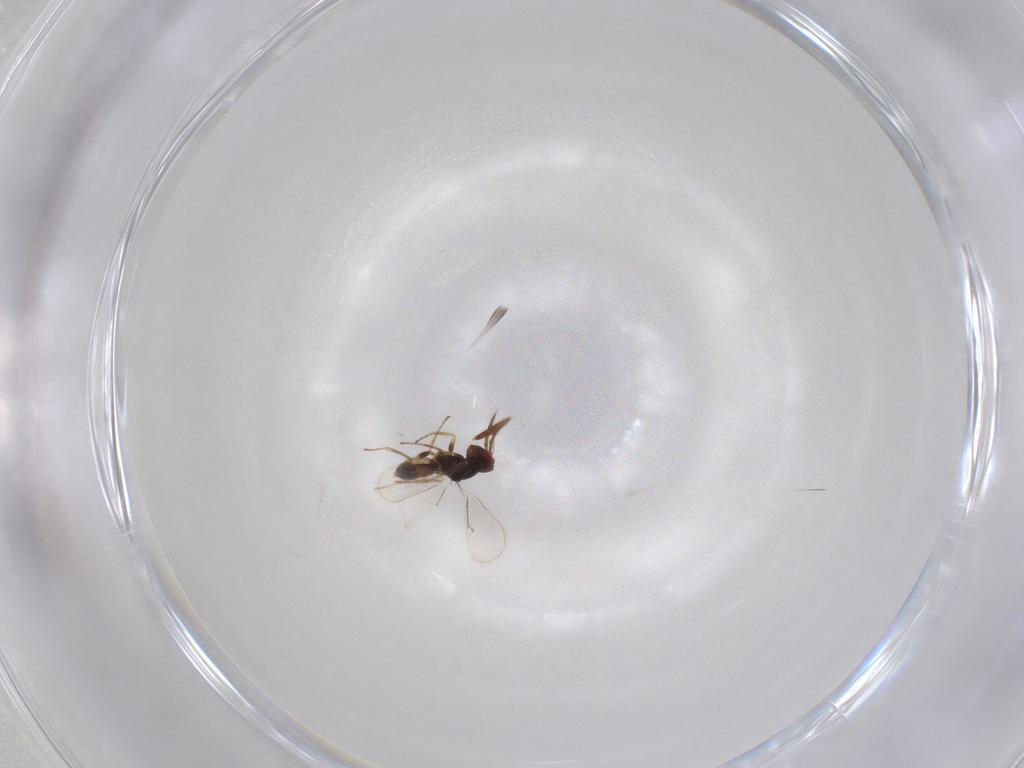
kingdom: Animalia
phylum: Arthropoda
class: Insecta
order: Hymenoptera
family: Eulophidae
